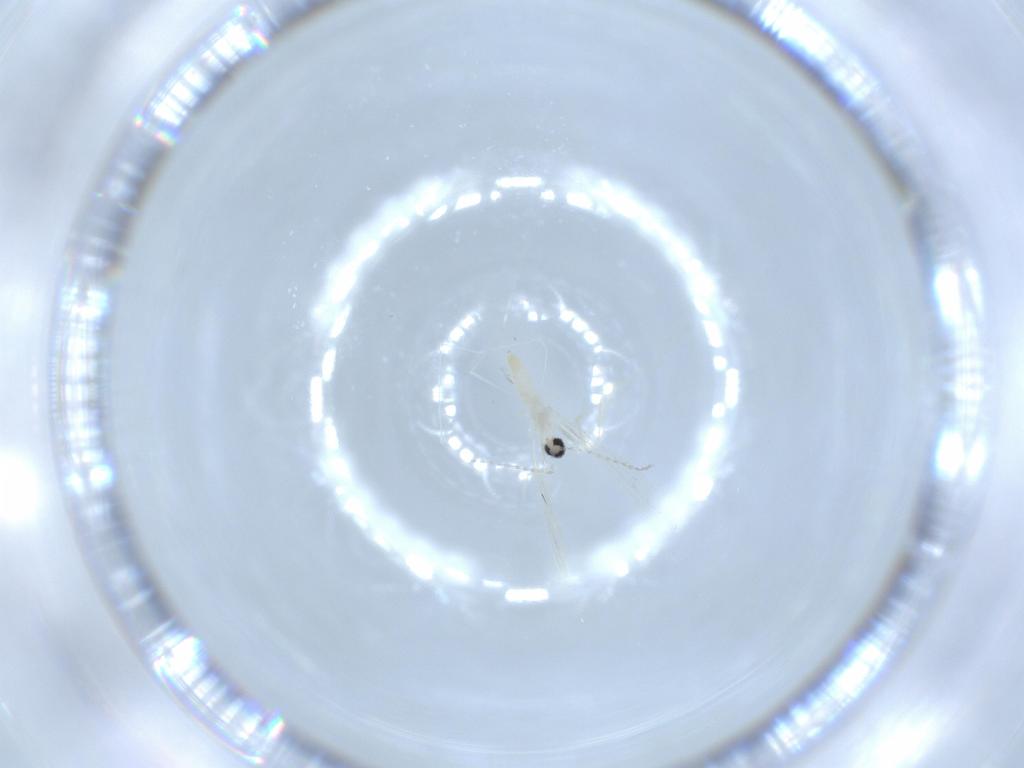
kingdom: Animalia
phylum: Arthropoda
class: Insecta
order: Diptera
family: Cecidomyiidae
